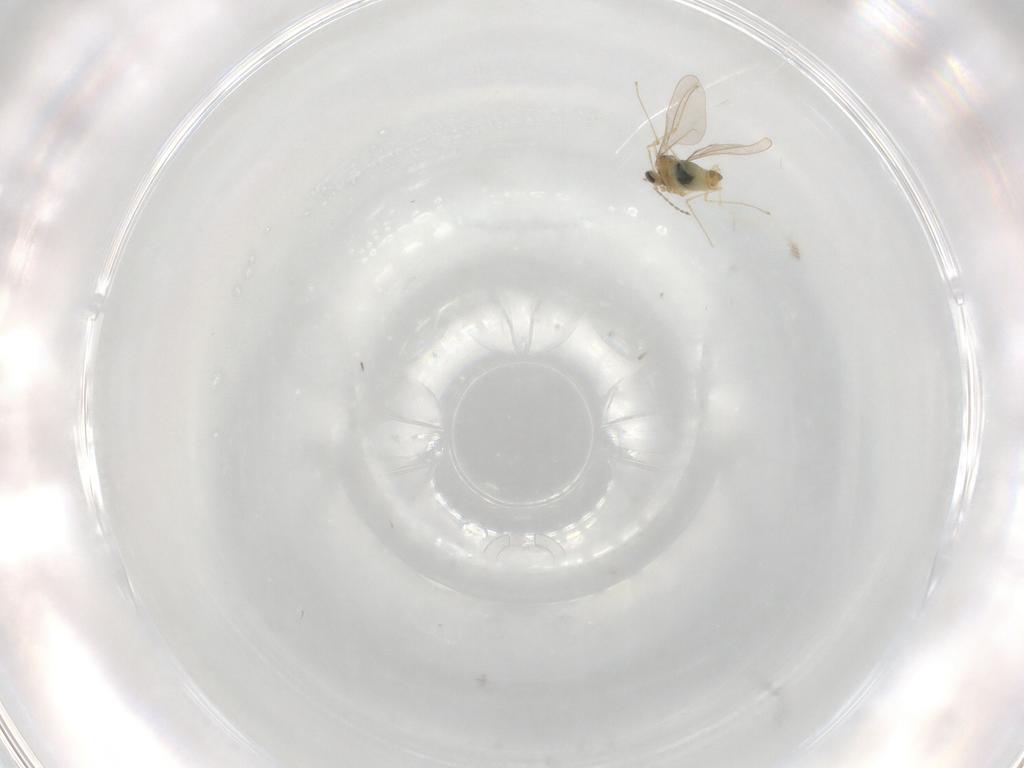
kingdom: Animalia
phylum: Arthropoda
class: Insecta
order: Diptera
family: Cecidomyiidae
